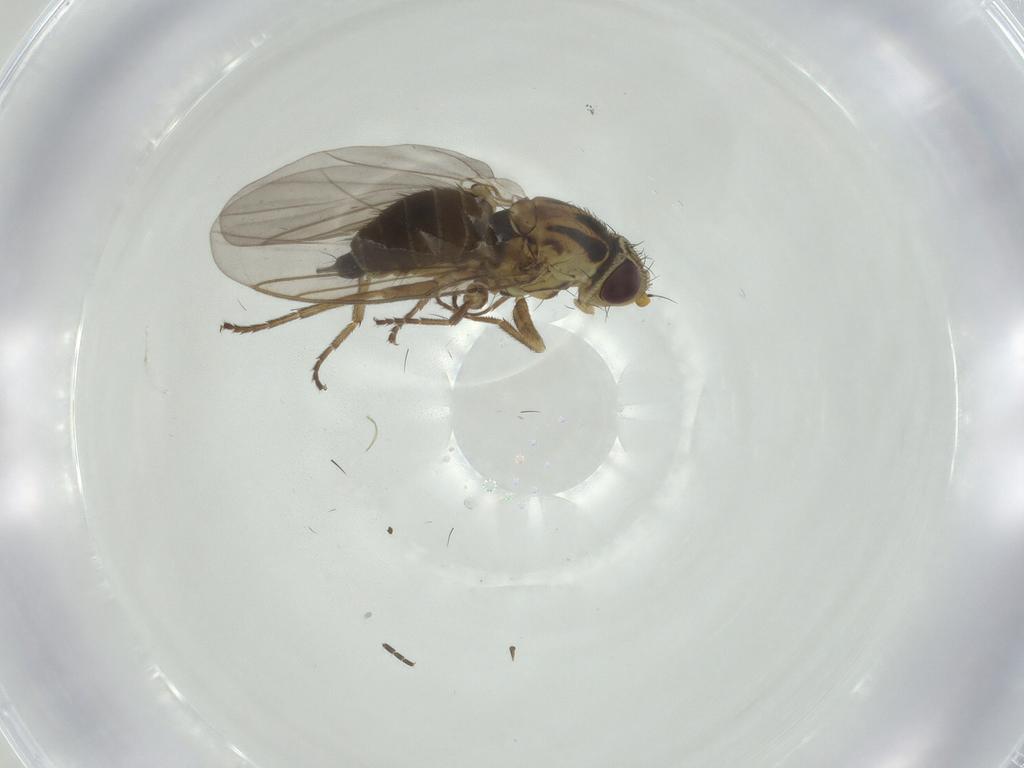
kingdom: Animalia
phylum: Arthropoda
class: Insecta
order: Diptera
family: Agromyzidae
